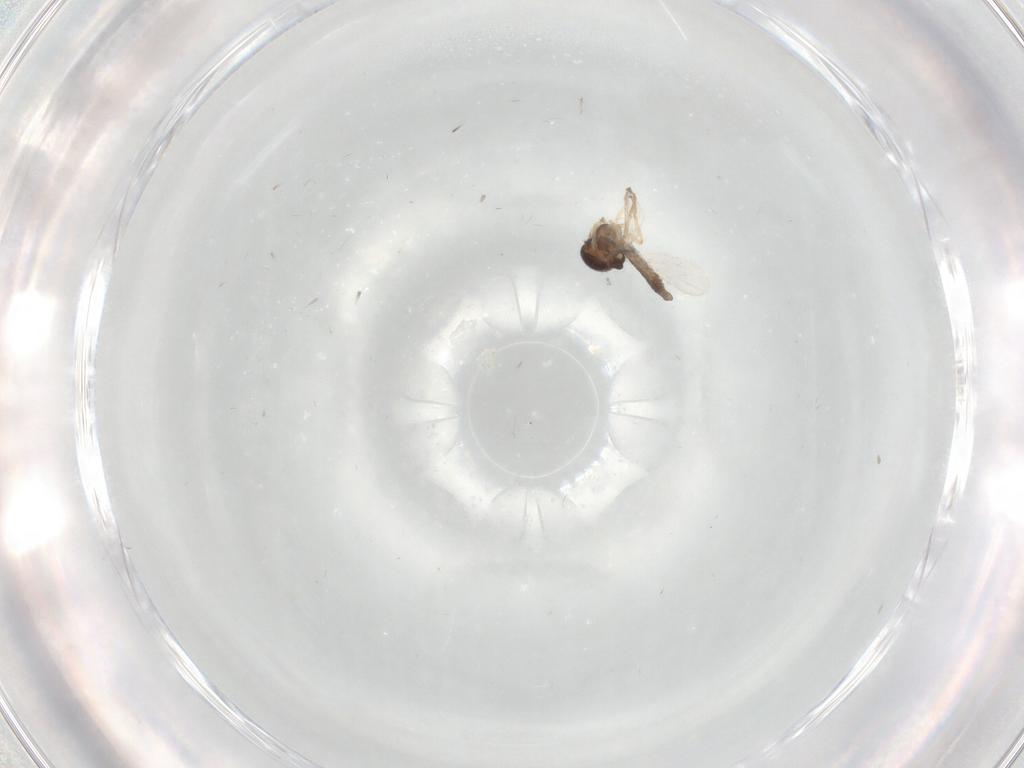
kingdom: Animalia
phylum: Arthropoda
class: Insecta
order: Diptera
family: Ceratopogonidae
